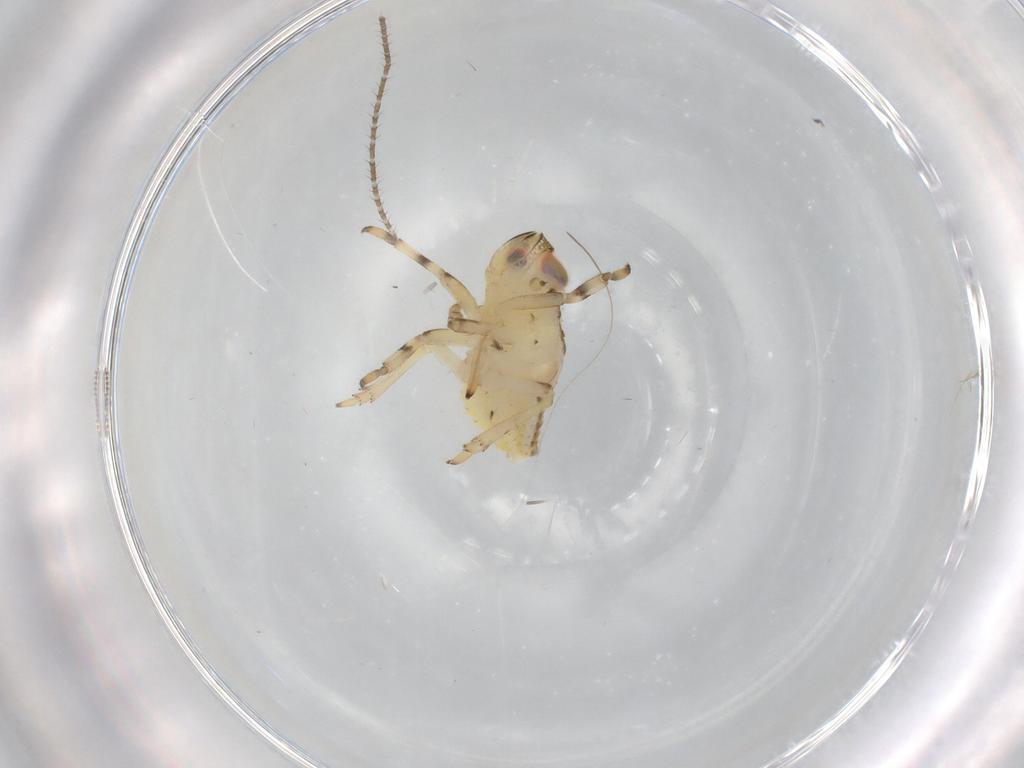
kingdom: Animalia
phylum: Arthropoda
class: Insecta
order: Hemiptera
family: Issidae
